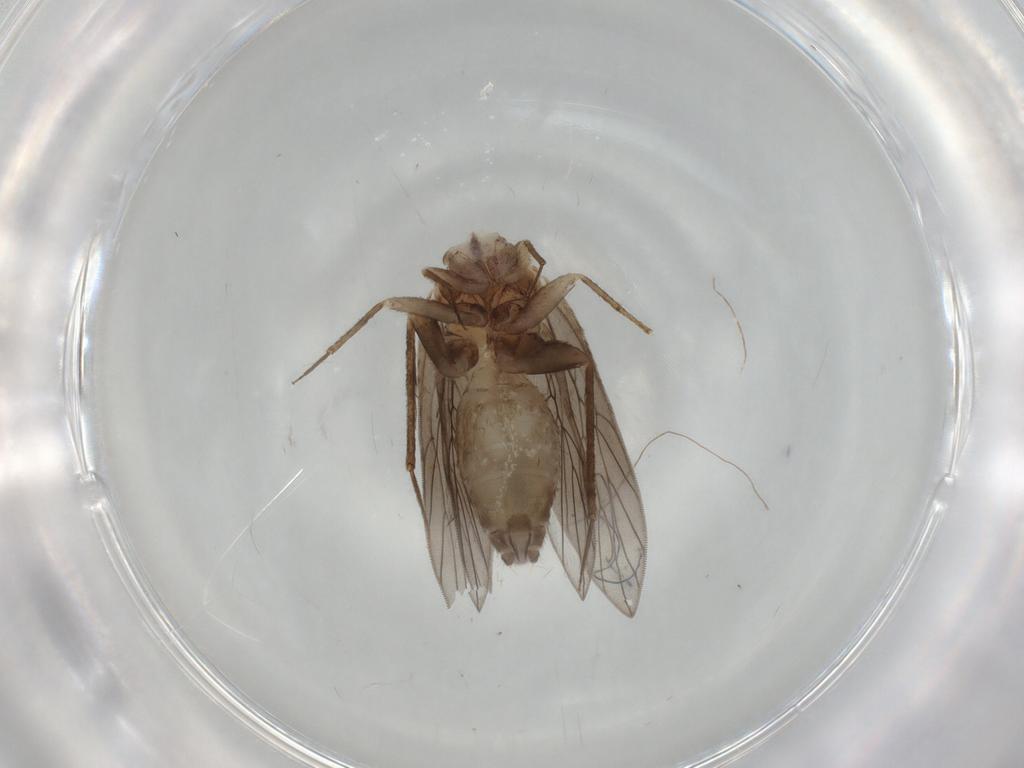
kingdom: Animalia
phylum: Arthropoda
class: Insecta
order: Psocodea
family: Lepidopsocidae
